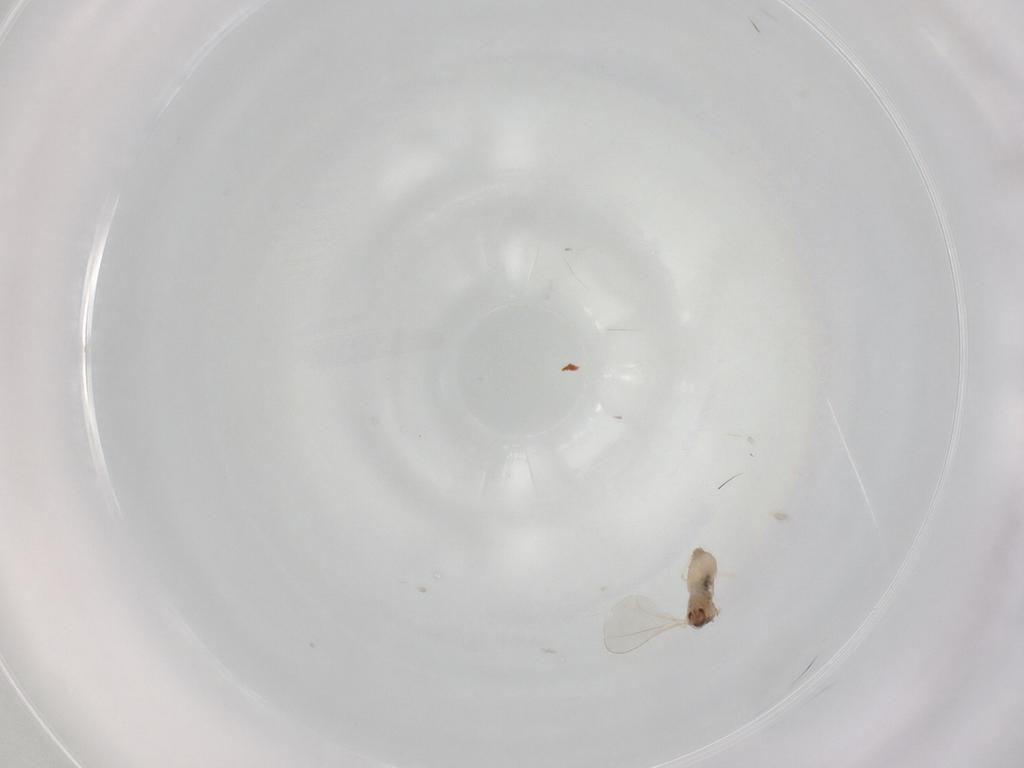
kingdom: Animalia
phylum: Arthropoda
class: Insecta
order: Diptera
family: Cecidomyiidae
